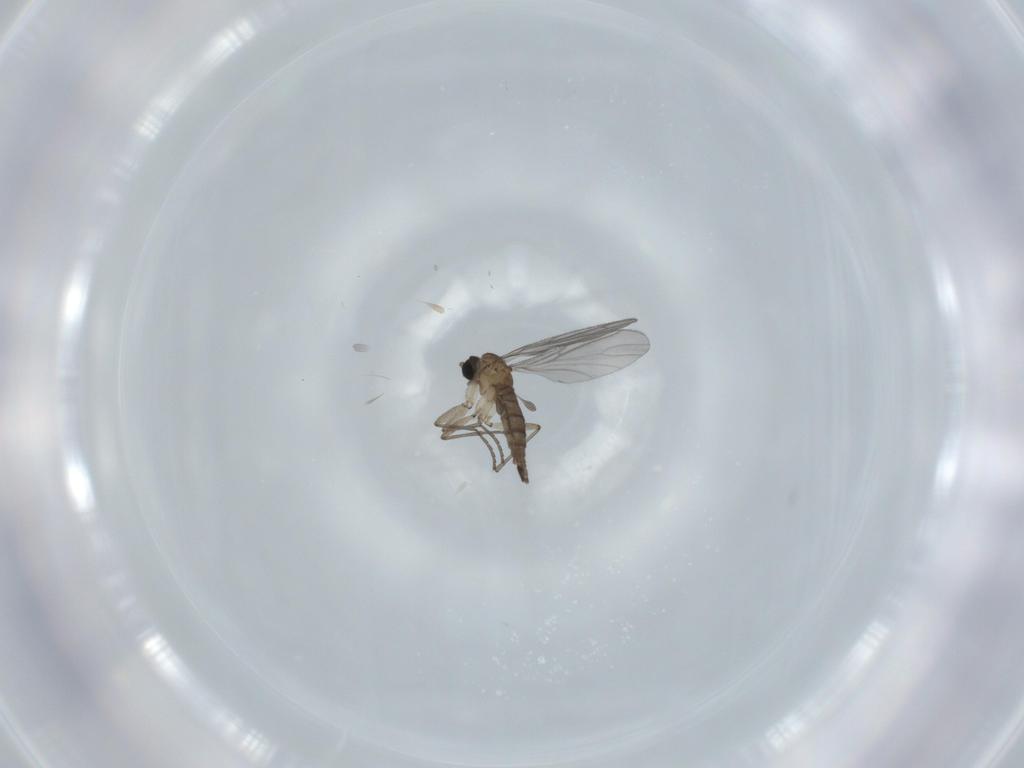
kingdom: Animalia
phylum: Arthropoda
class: Insecta
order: Diptera
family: Sciaridae
